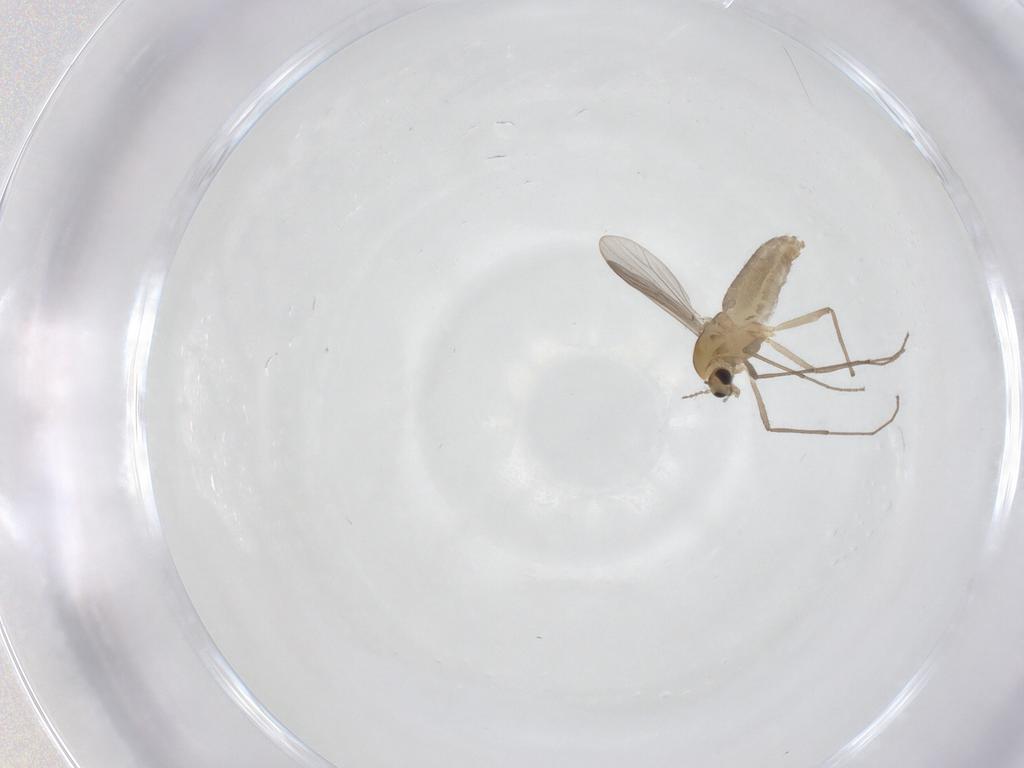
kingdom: Animalia
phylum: Arthropoda
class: Insecta
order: Diptera
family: Chironomidae
